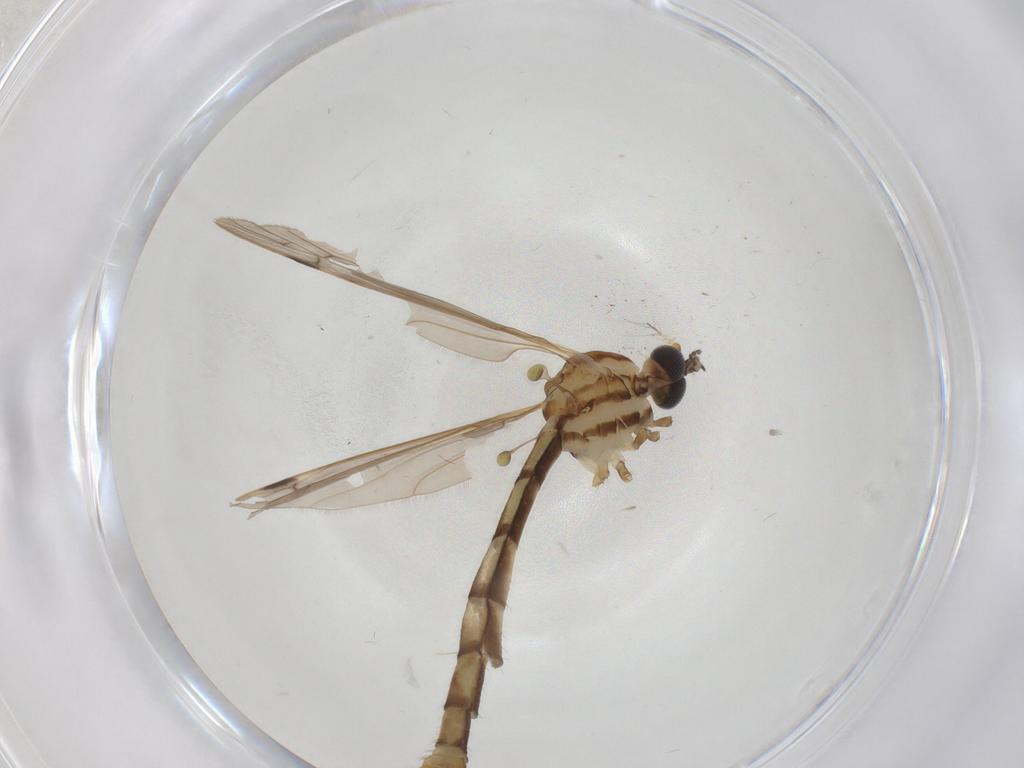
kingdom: Animalia
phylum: Arthropoda
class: Insecta
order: Diptera
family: Limoniidae
